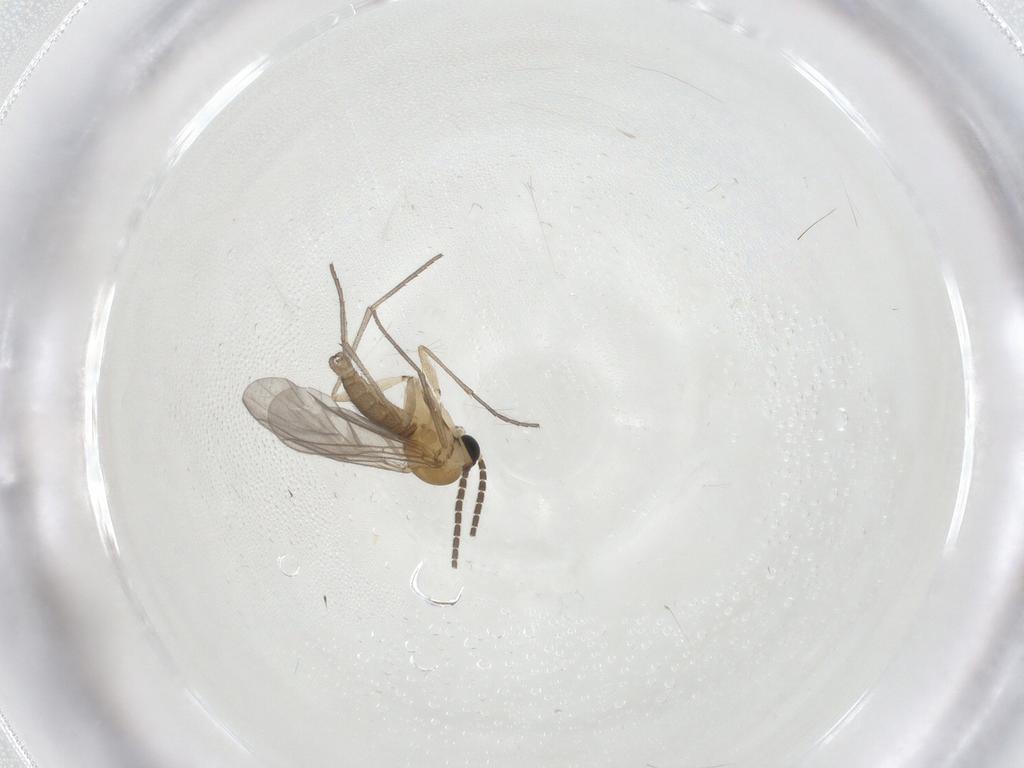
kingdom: Animalia
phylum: Arthropoda
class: Insecta
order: Diptera
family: Sciaridae
